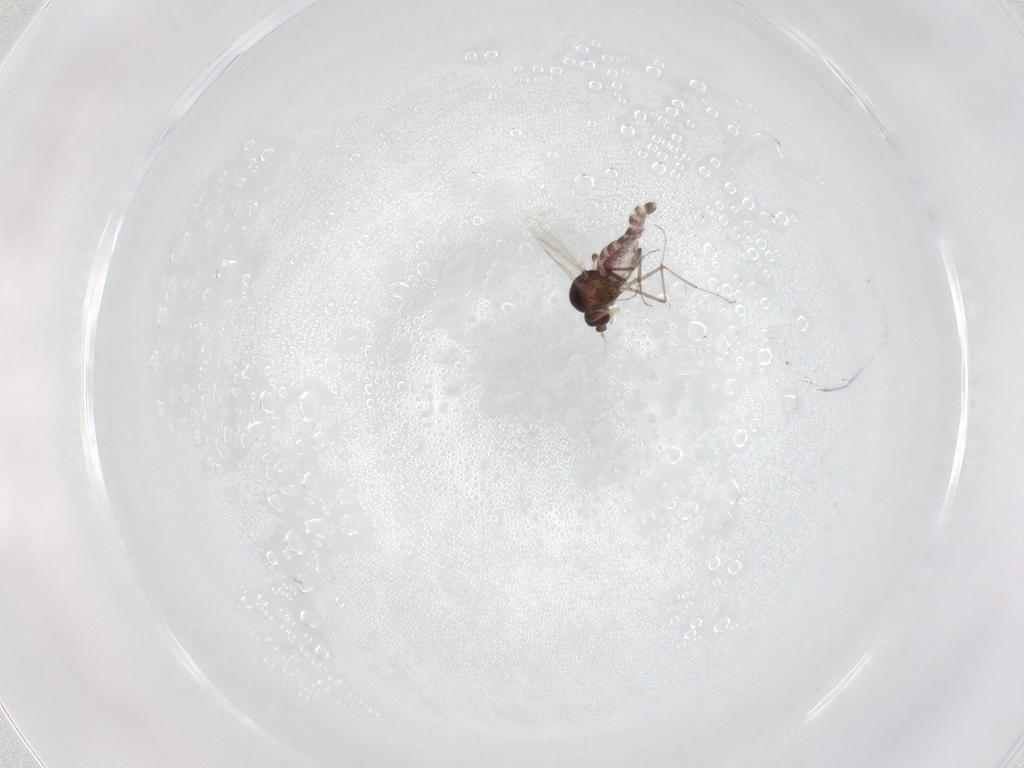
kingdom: Animalia
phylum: Arthropoda
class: Insecta
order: Diptera
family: Ceratopogonidae
